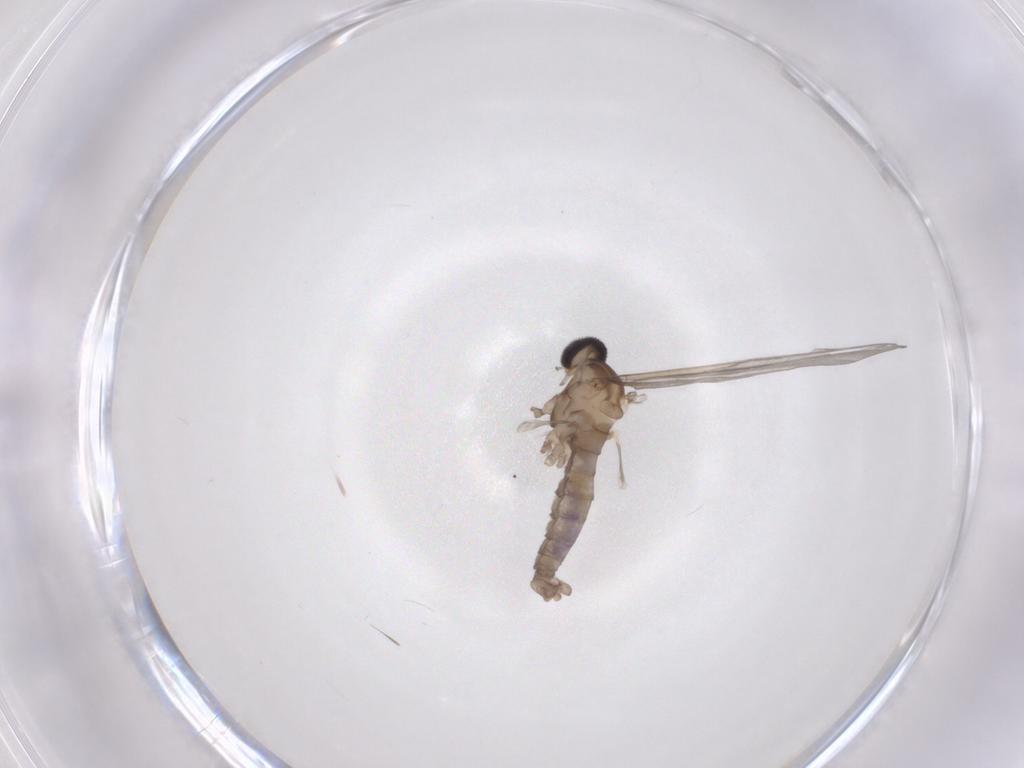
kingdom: Animalia
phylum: Arthropoda
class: Insecta
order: Diptera
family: Cecidomyiidae
